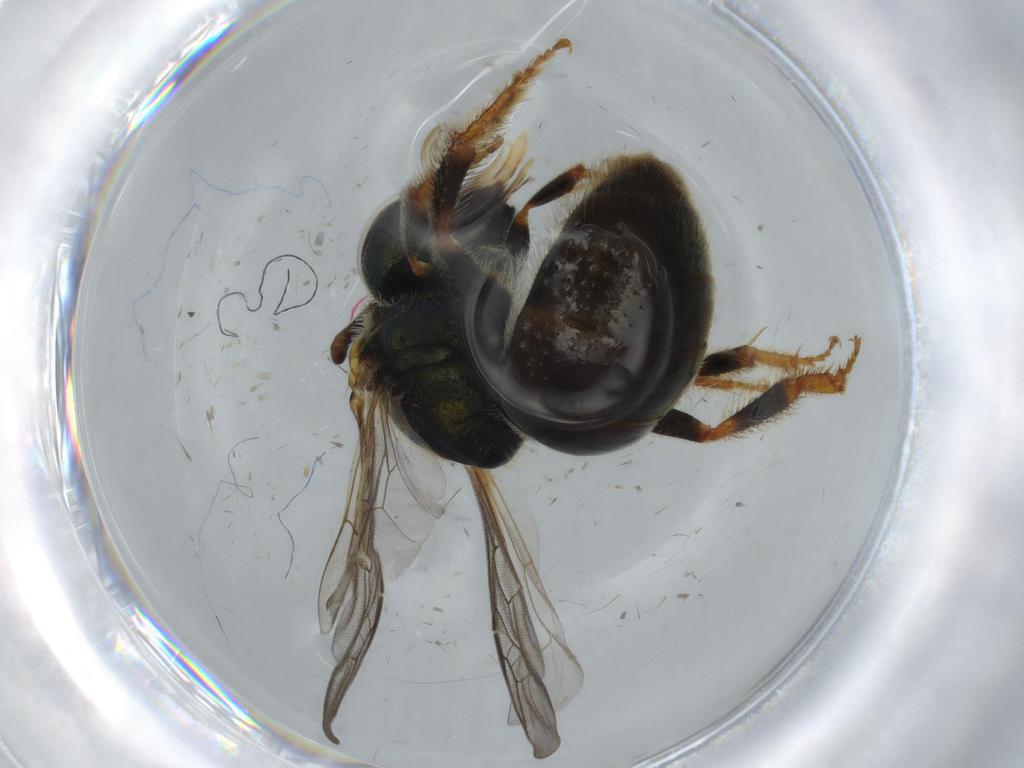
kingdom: Animalia
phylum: Arthropoda
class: Insecta
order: Hymenoptera
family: Halictidae
